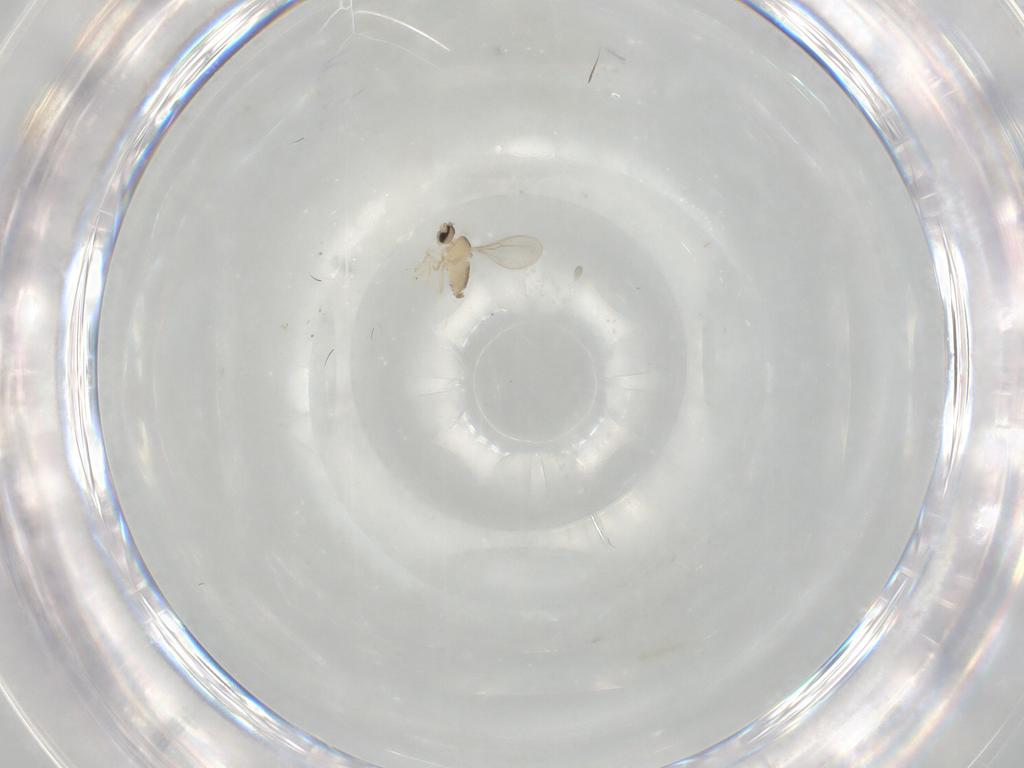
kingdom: Animalia
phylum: Arthropoda
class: Insecta
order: Diptera
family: Tabanidae
